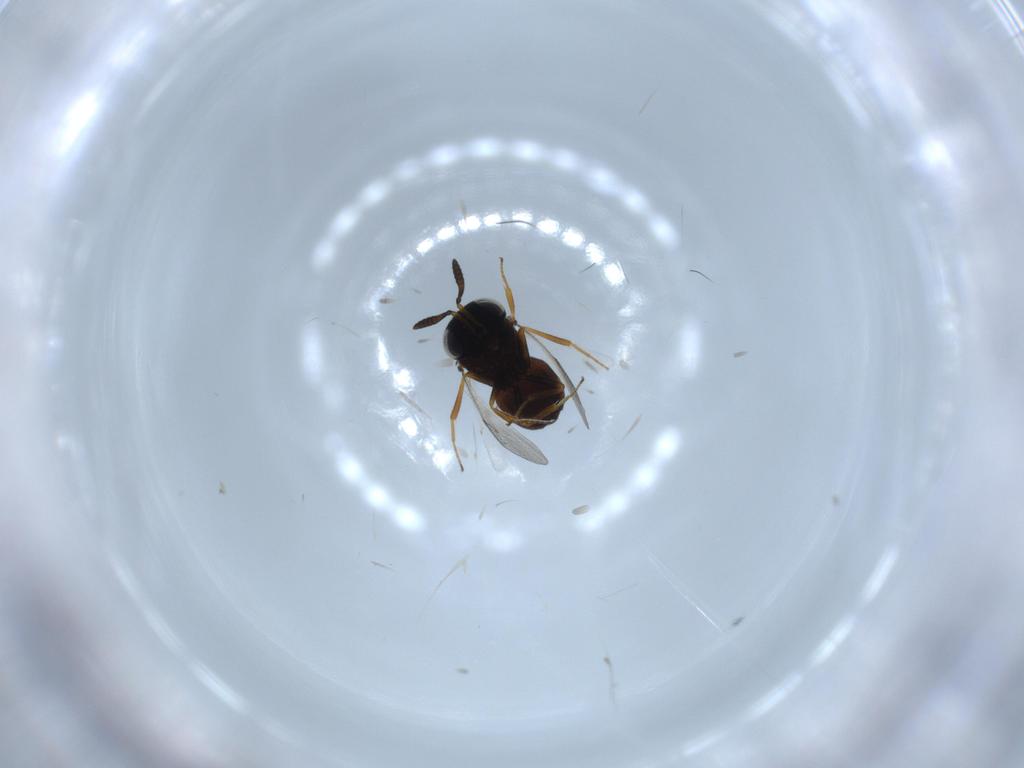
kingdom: Animalia
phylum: Arthropoda
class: Insecta
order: Hymenoptera
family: Scelionidae
